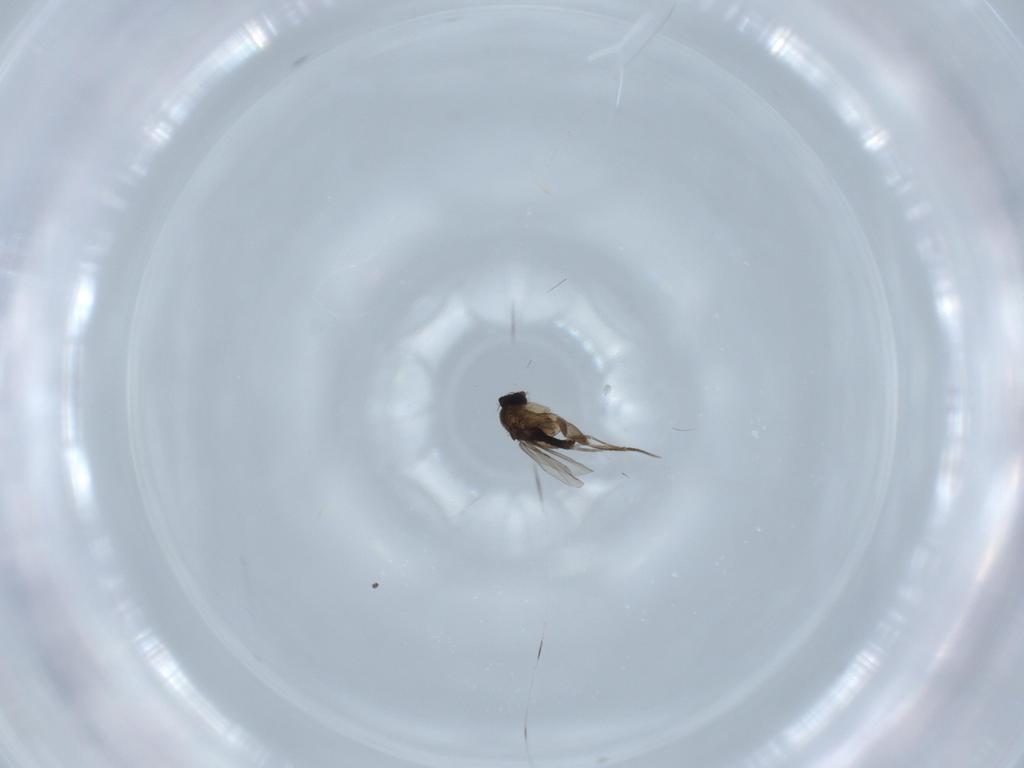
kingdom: Animalia
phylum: Arthropoda
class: Insecta
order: Diptera
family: Phoridae
